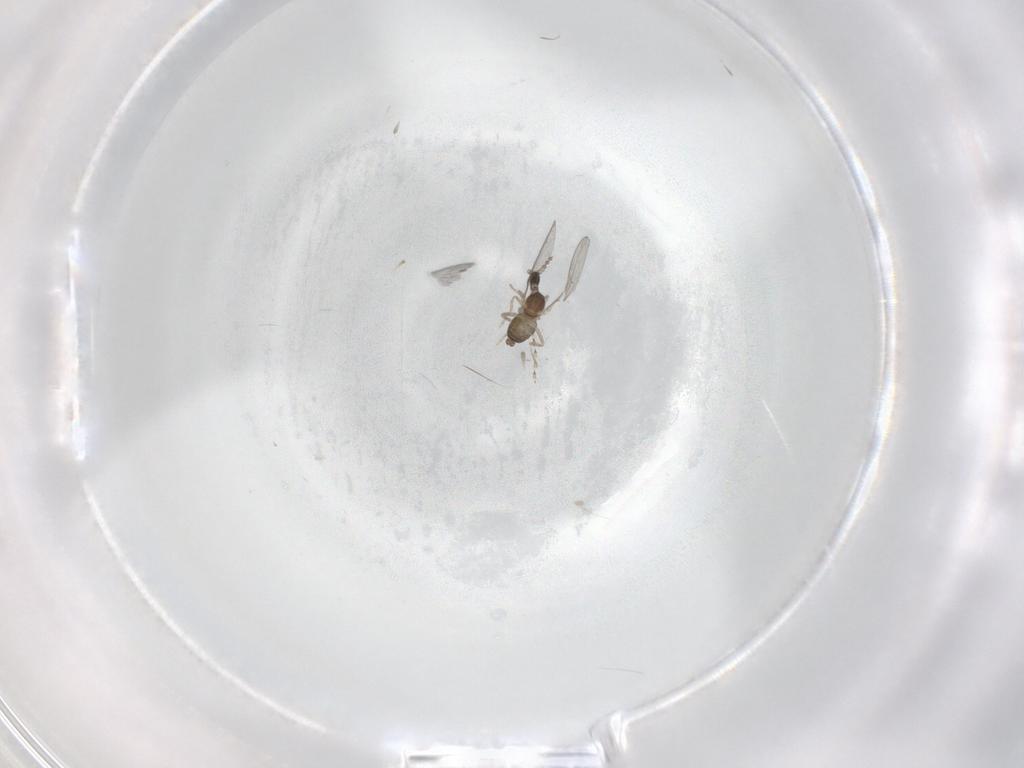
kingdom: Animalia
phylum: Arthropoda
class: Insecta
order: Diptera
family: Cecidomyiidae
